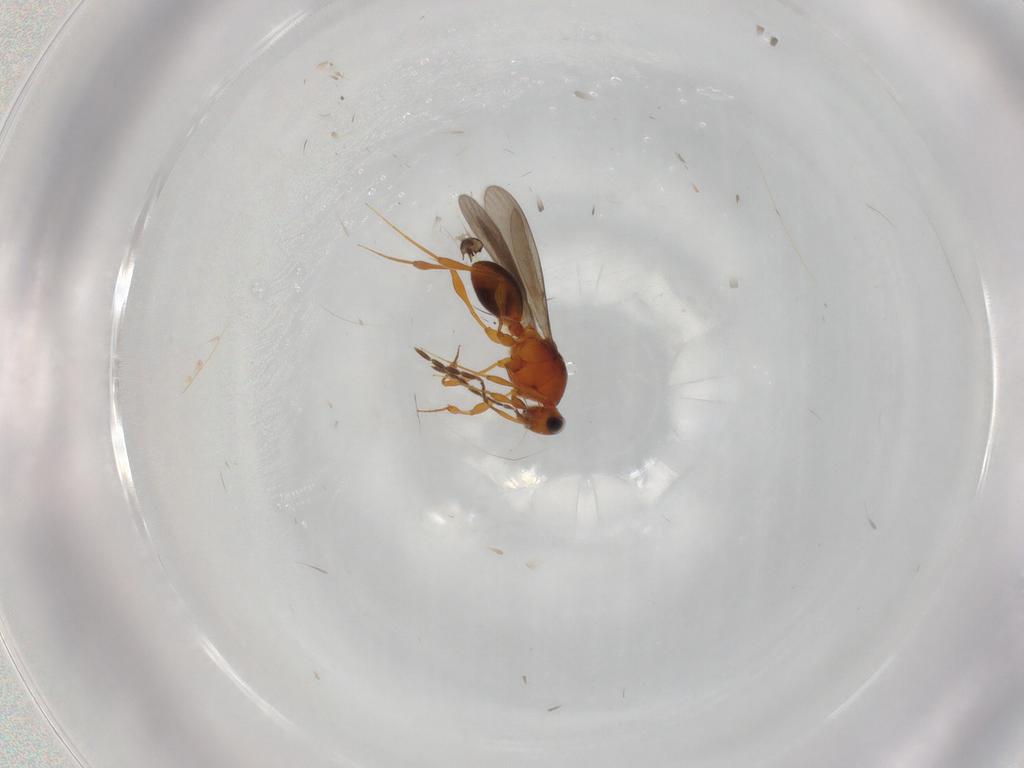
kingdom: Animalia
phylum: Arthropoda
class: Insecta
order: Hymenoptera
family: Platygastridae
